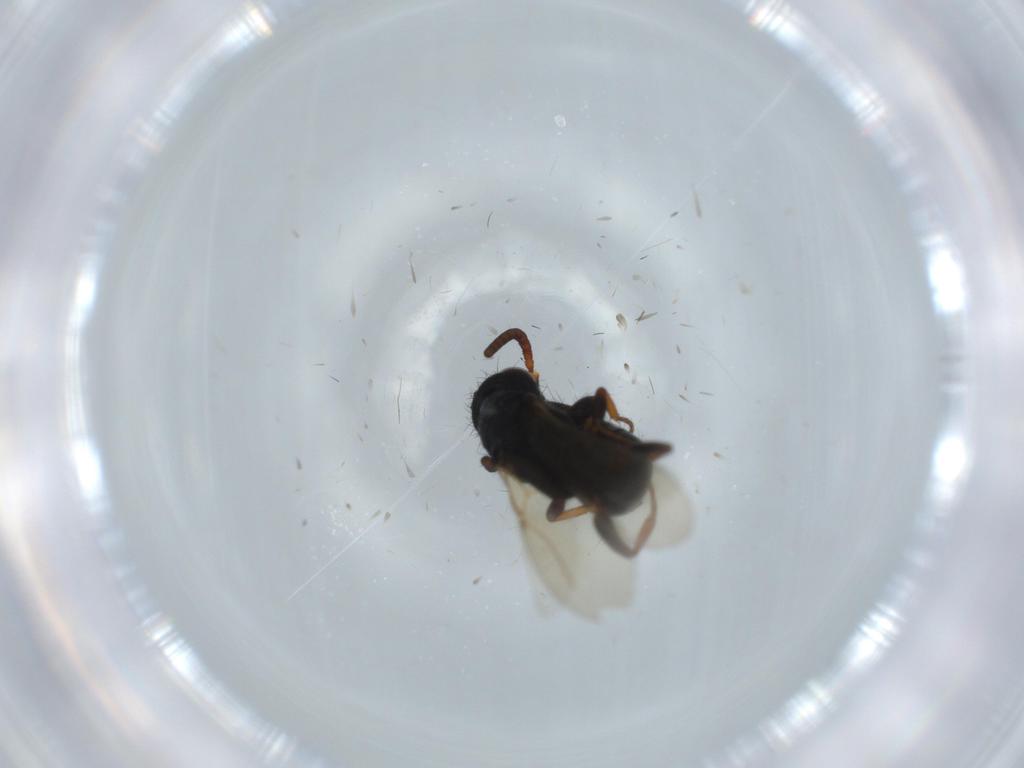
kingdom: Animalia
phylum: Arthropoda
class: Insecta
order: Hymenoptera
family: Bethylidae
